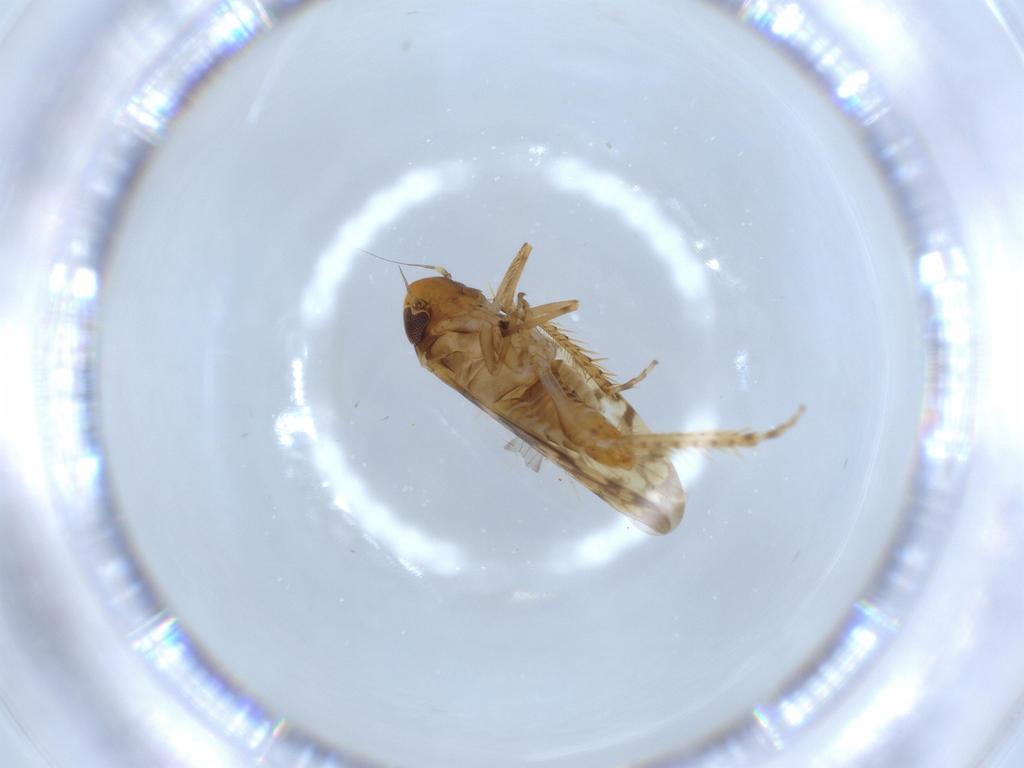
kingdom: Animalia
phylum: Arthropoda
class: Insecta
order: Hemiptera
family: Cicadellidae
